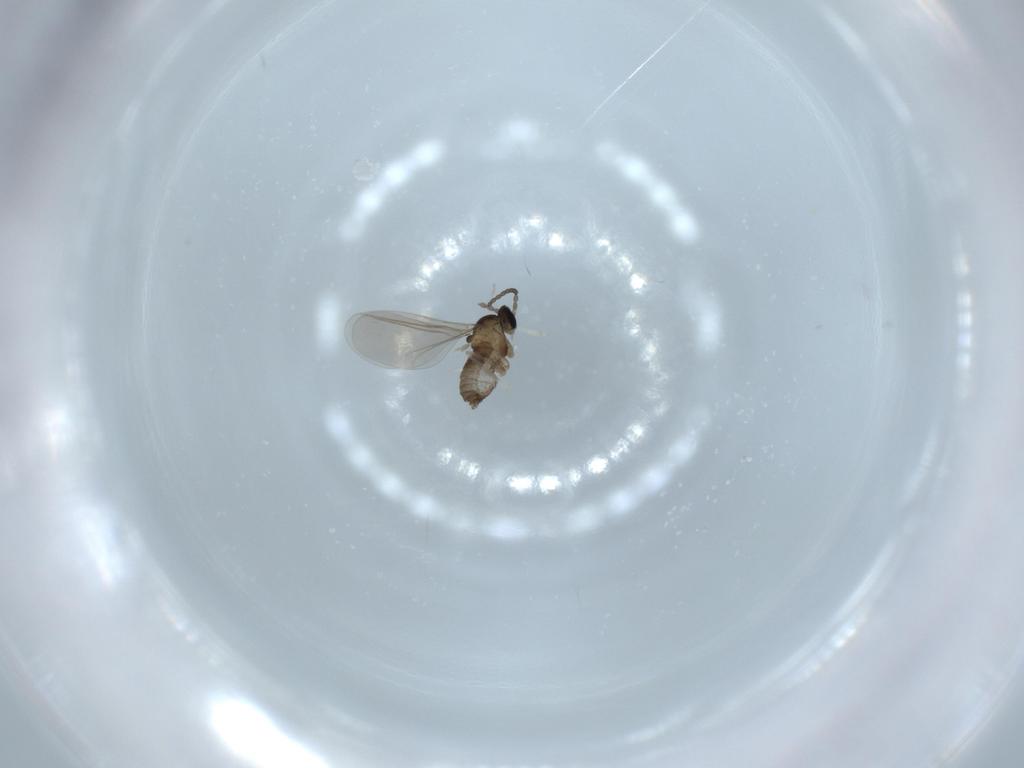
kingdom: Animalia
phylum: Arthropoda
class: Insecta
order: Diptera
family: Cecidomyiidae
